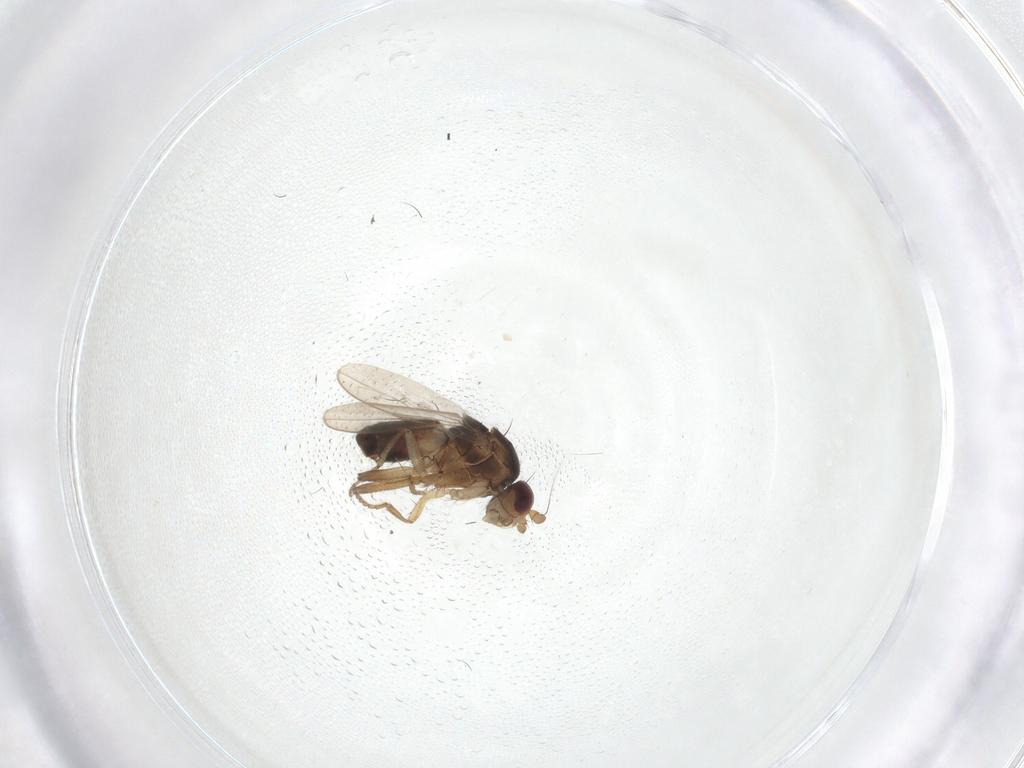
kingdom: Animalia
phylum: Arthropoda
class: Insecta
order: Diptera
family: Sphaeroceridae
